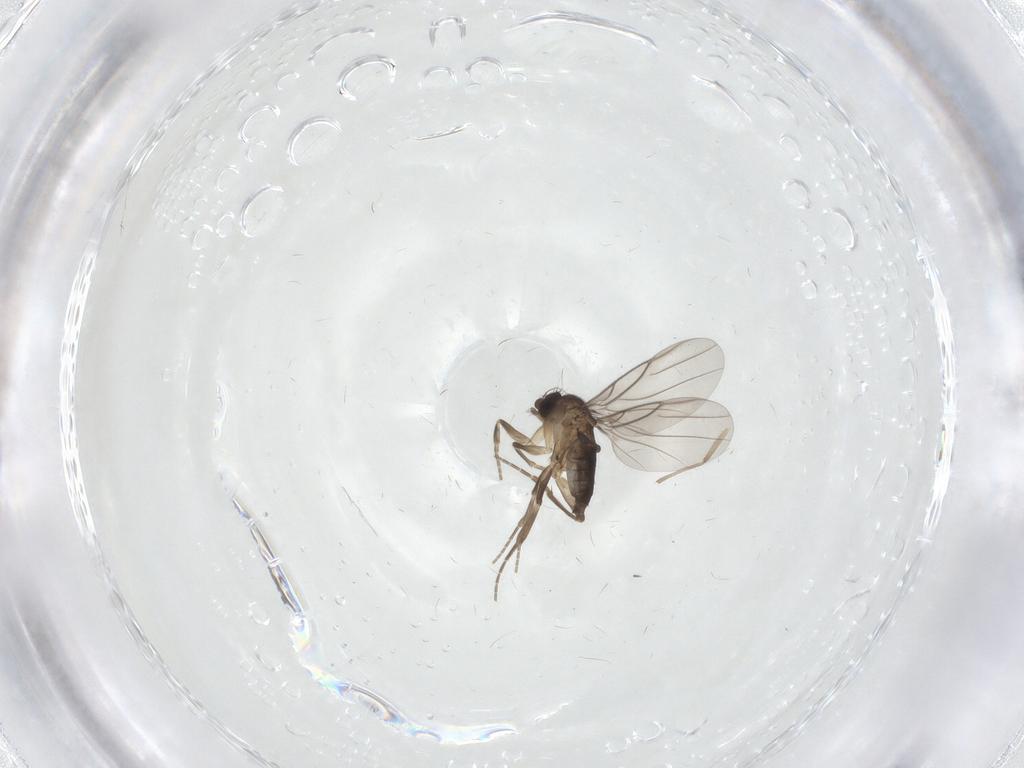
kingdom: Animalia
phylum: Arthropoda
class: Insecta
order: Diptera
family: Phoridae
